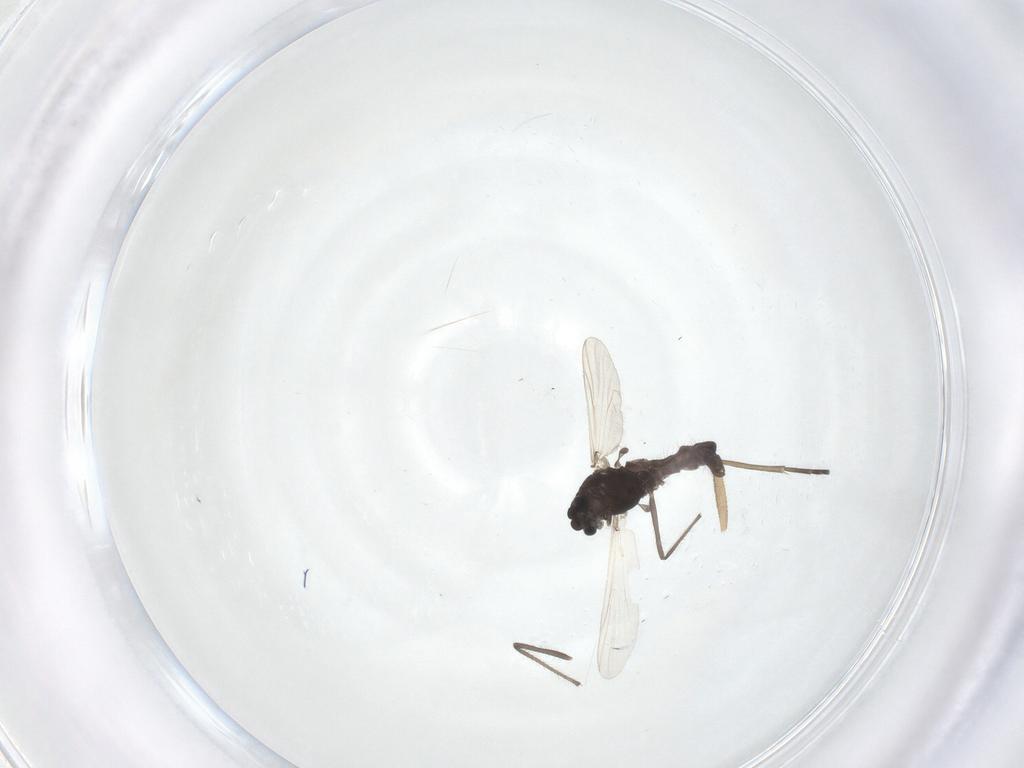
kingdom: Animalia
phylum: Arthropoda
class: Insecta
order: Diptera
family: Sciaridae
